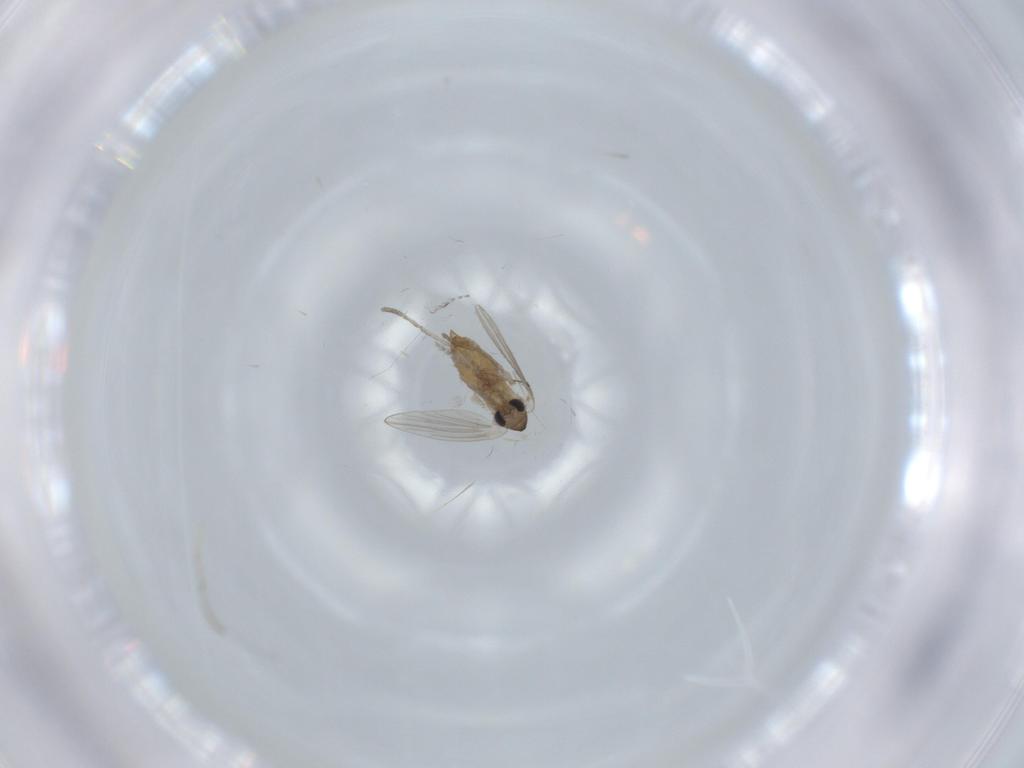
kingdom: Animalia
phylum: Arthropoda
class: Insecta
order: Diptera
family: Psychodidae
